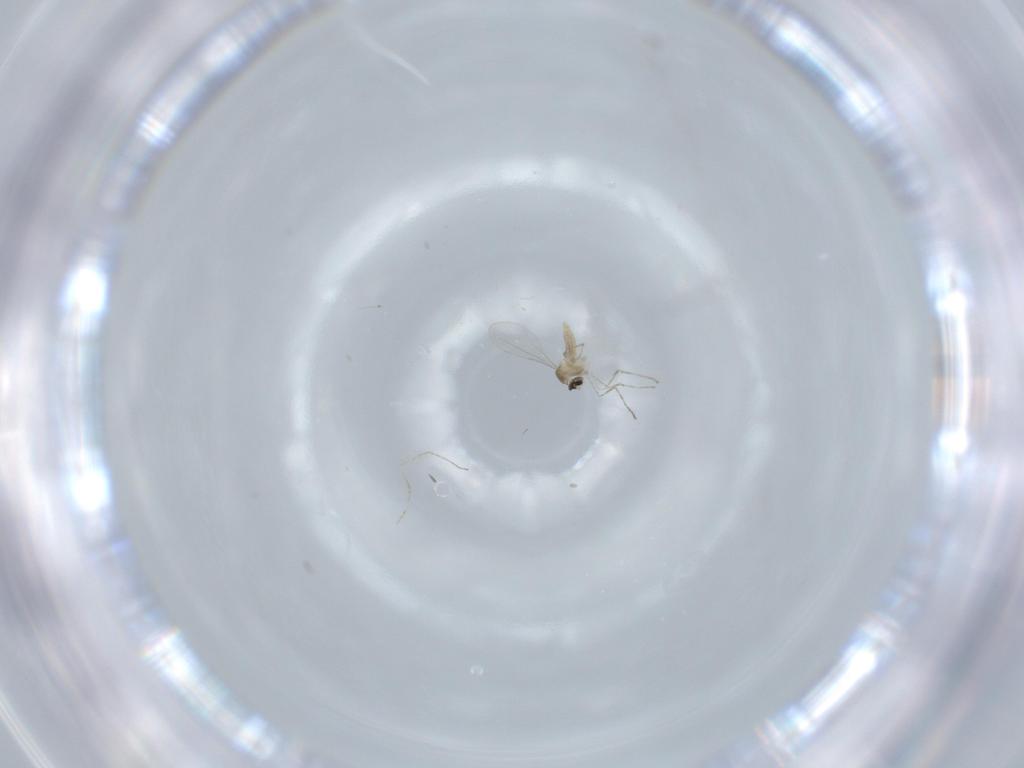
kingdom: Animalia
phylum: Arthropoda
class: Insecta
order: Diptera
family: Cecidomyiidae
